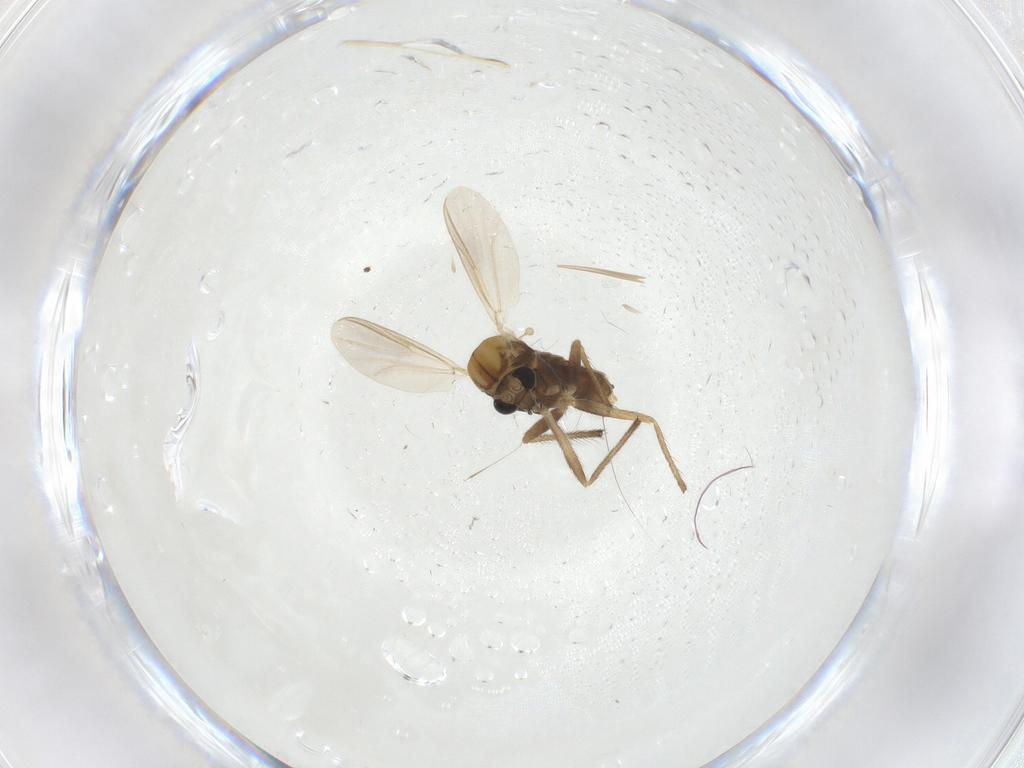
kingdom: Animalia
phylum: Arthropoda
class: Insecta
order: Diptera
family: Chironomidae
